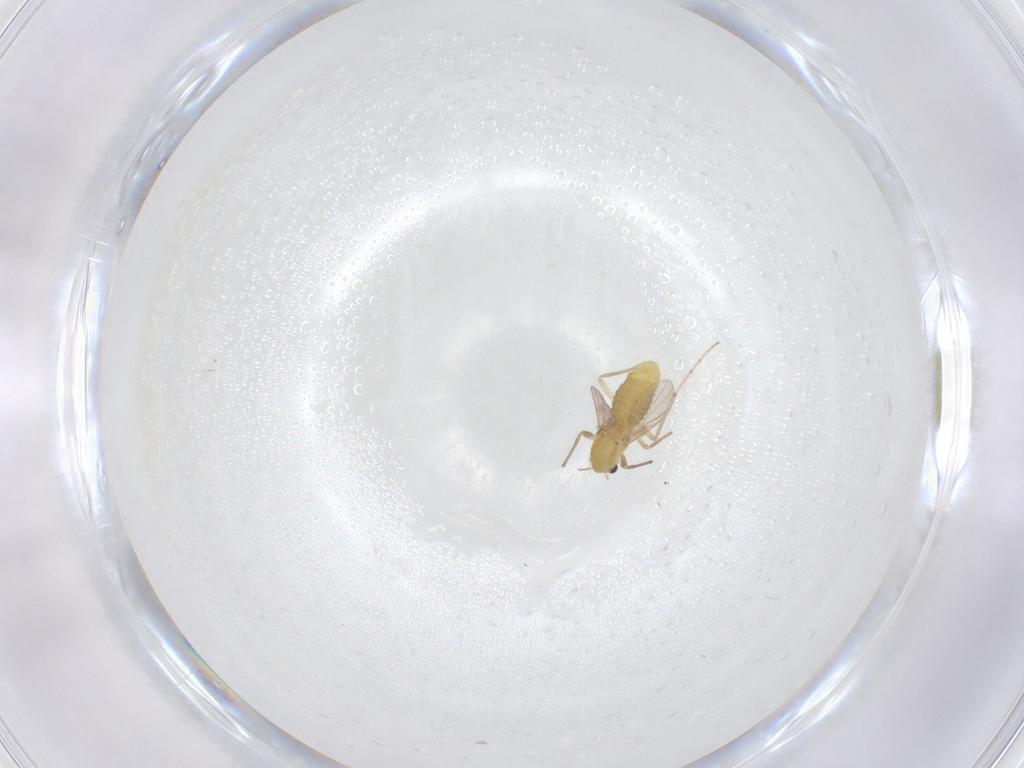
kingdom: Animalia
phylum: Arthropoda
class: Insecta
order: Diptera
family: Chironomidae
